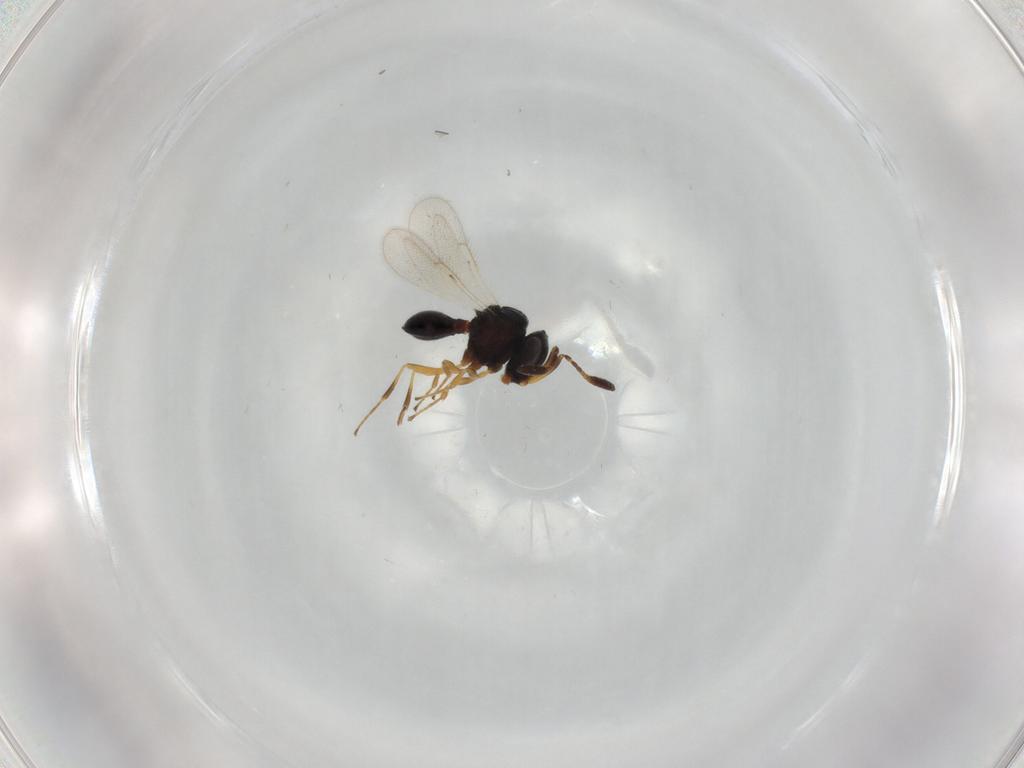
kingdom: Animalia
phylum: Arthropoda
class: Insecta
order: Hymenoptera
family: Scelionidae
